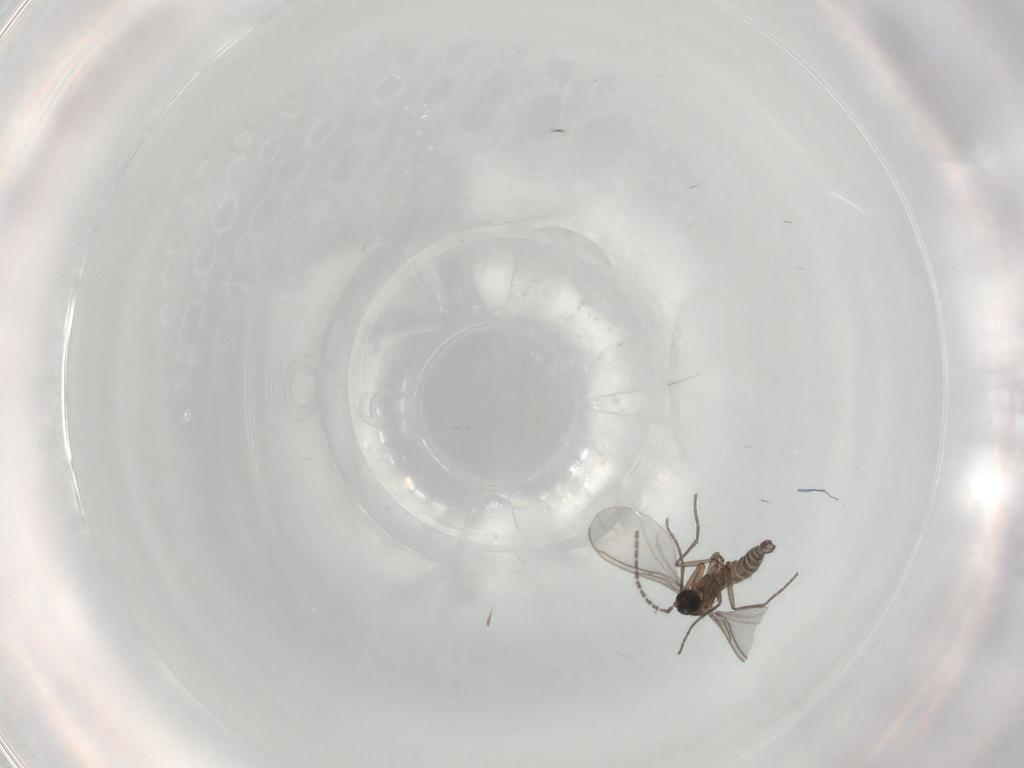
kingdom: Animalia
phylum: Arthropoda
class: Insecta
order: Diptera
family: Sciaridae
